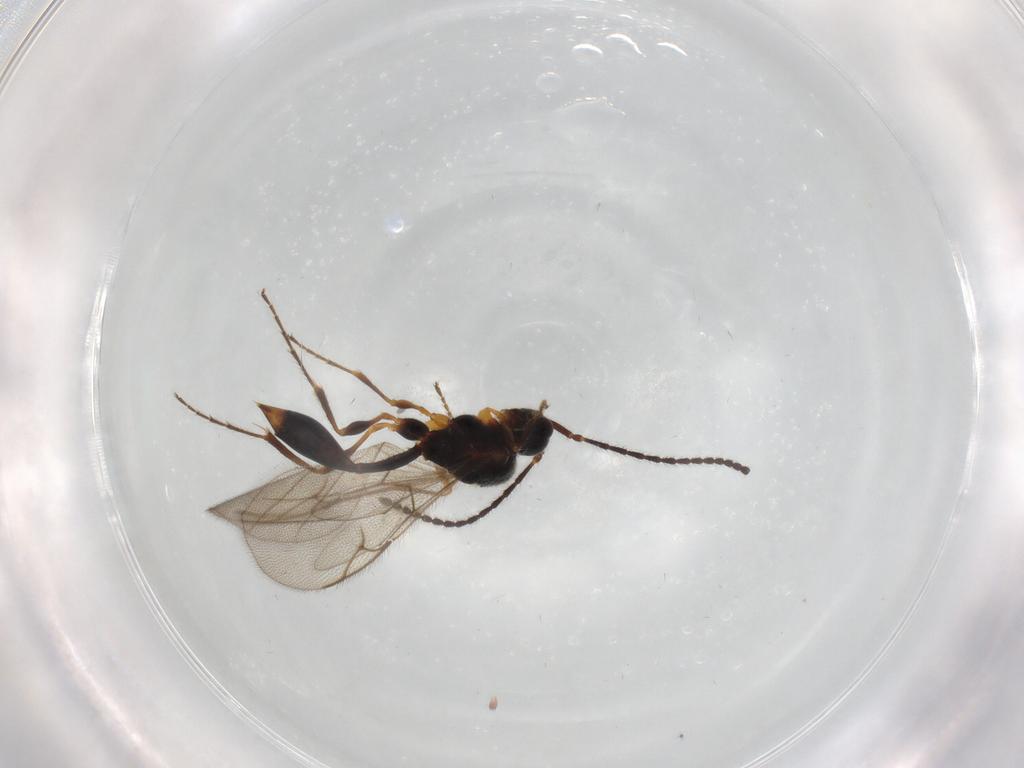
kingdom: Animalia
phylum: Arthropoda
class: Insecta
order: Hymenoptera
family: Diapriidae
